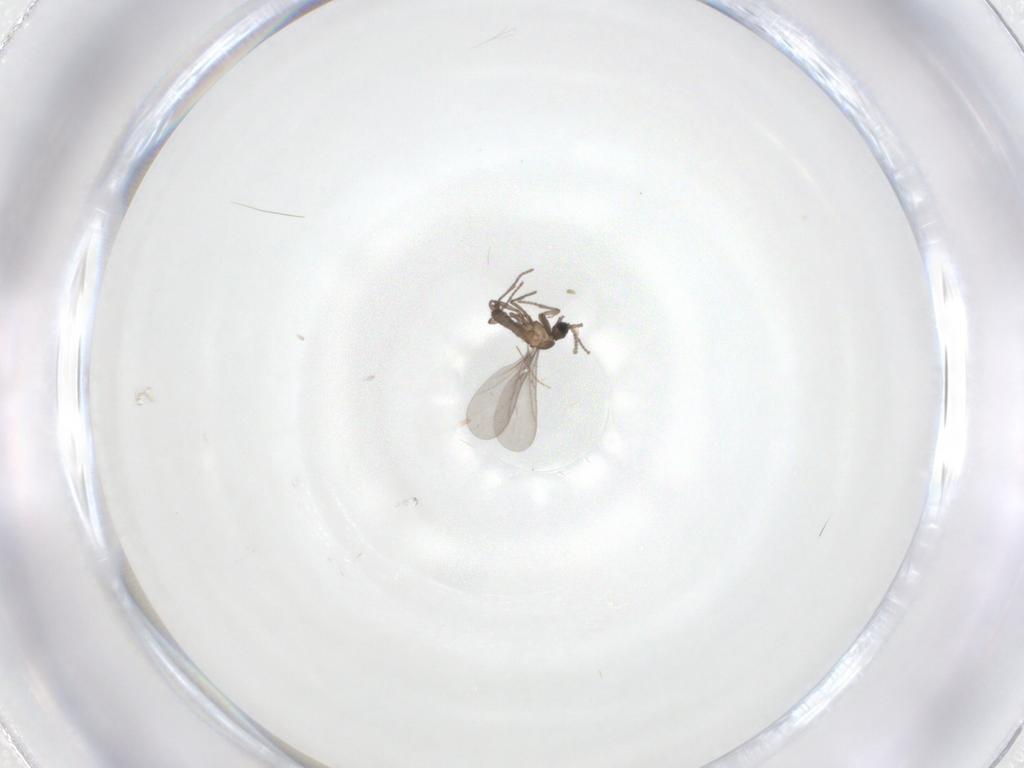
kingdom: Animalia
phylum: Arthropoda
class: Insecta
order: Diptera
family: Chironomidae
